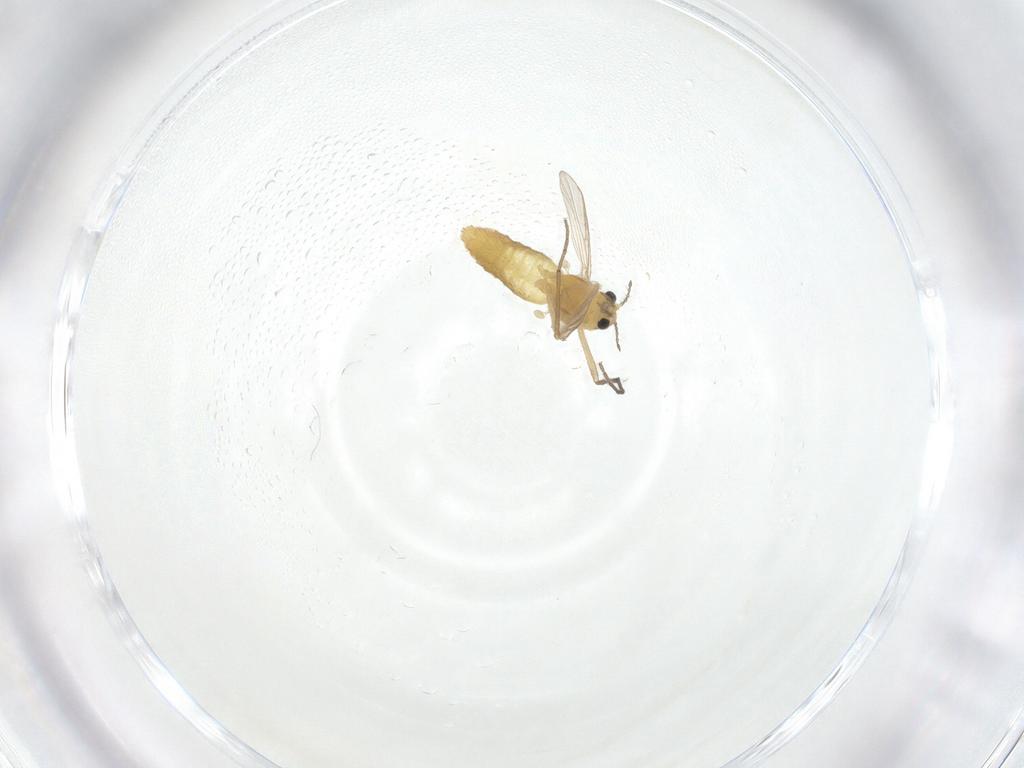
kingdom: Animalia
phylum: Arthropoda
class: Insecta
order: Diptera
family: Chironomidae
